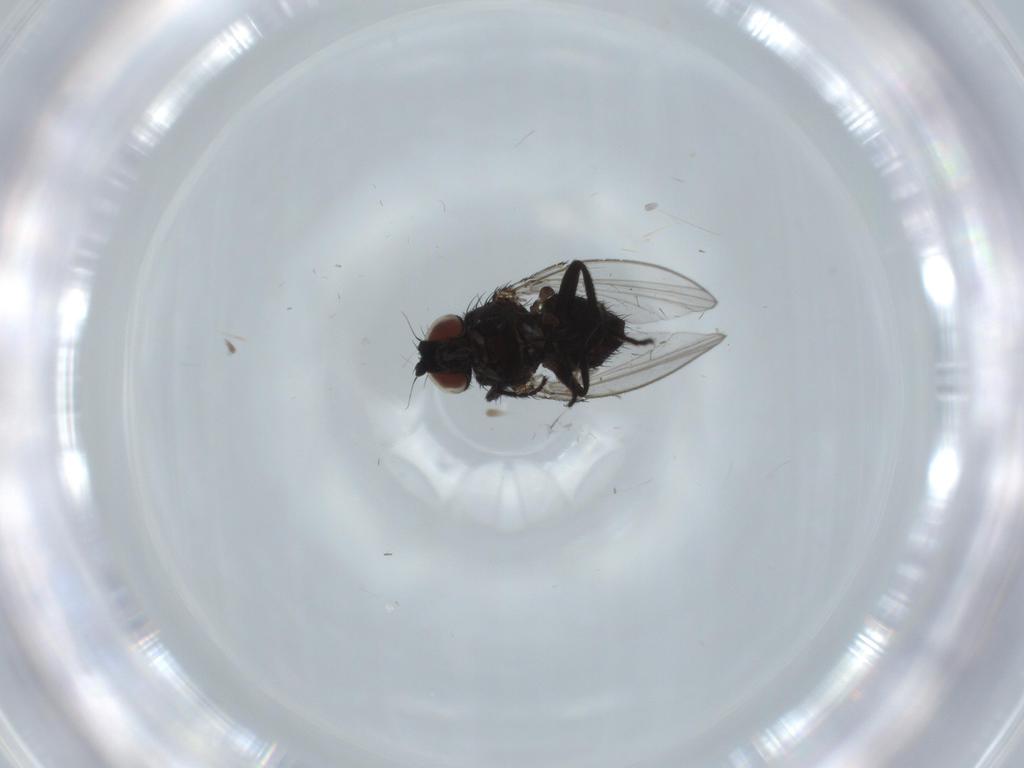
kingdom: Animalia
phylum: Arthropoda
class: Insecta
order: Diptera
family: Milichiidae
